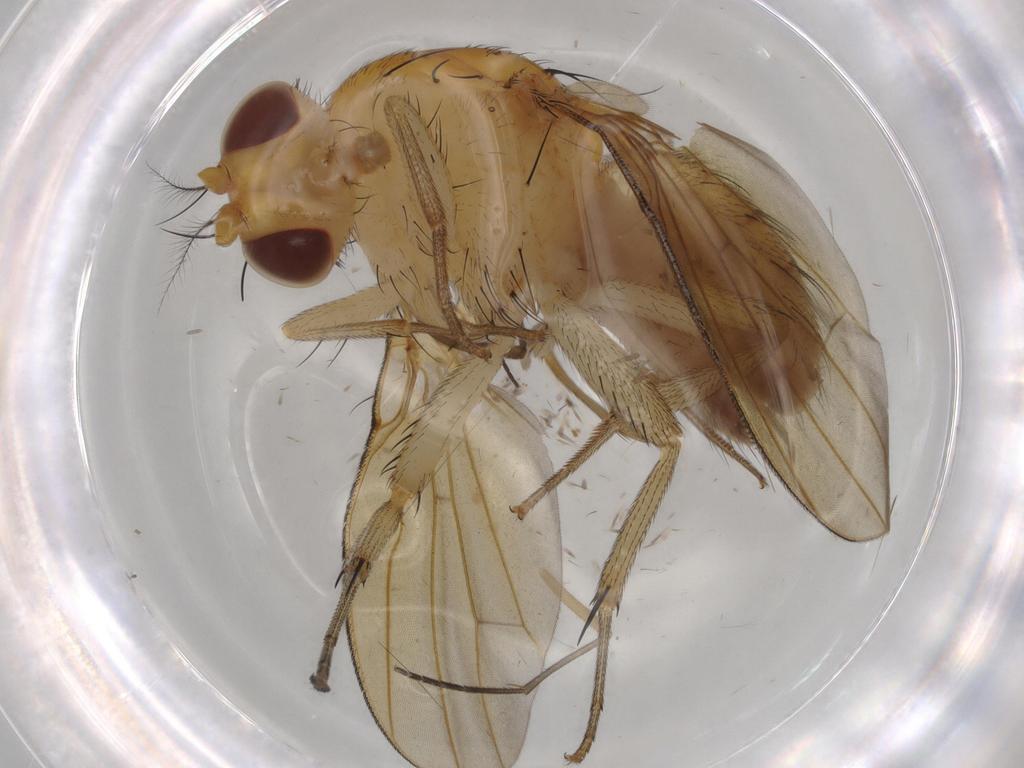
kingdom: Animalia
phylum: Arthropoda
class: Insecta
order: Diptera
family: Cecidomyiidae
